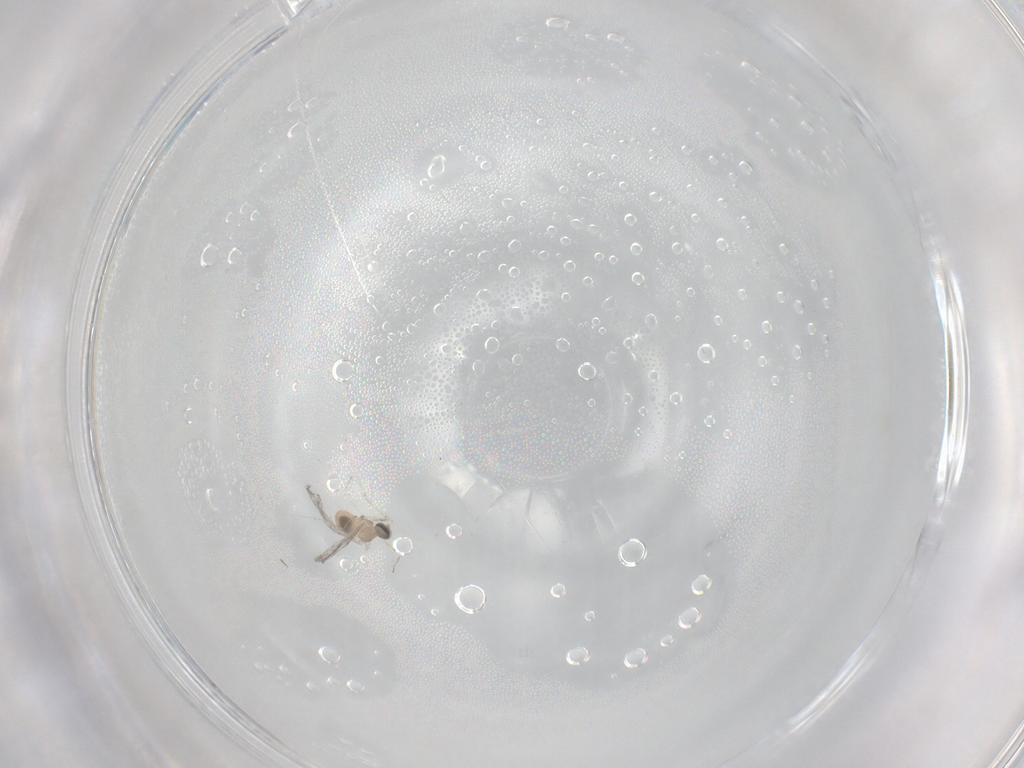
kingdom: Animalia
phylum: Arthropoda
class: Insecta
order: Diptera
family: Cecidomyiidae
